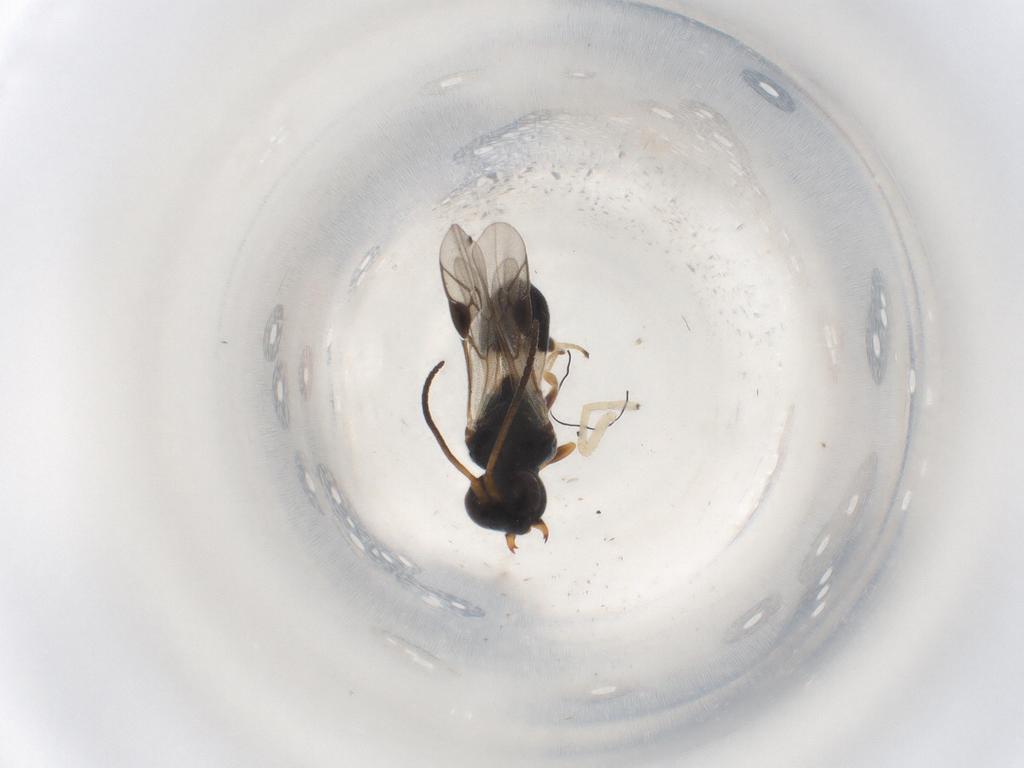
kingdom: Animalia
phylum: Arthropoda
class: Insecta
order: Hymenoptera
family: Braconidae
